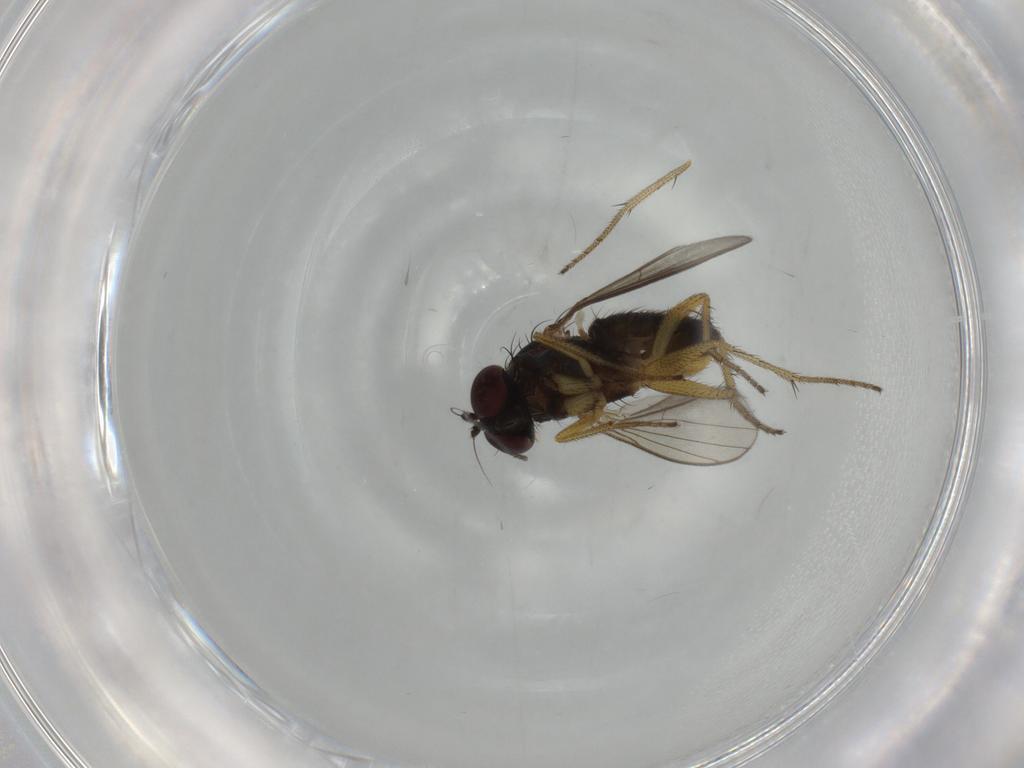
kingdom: Animalia
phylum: Arthropoda
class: Insecta
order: Diptera
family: Sciaridae
